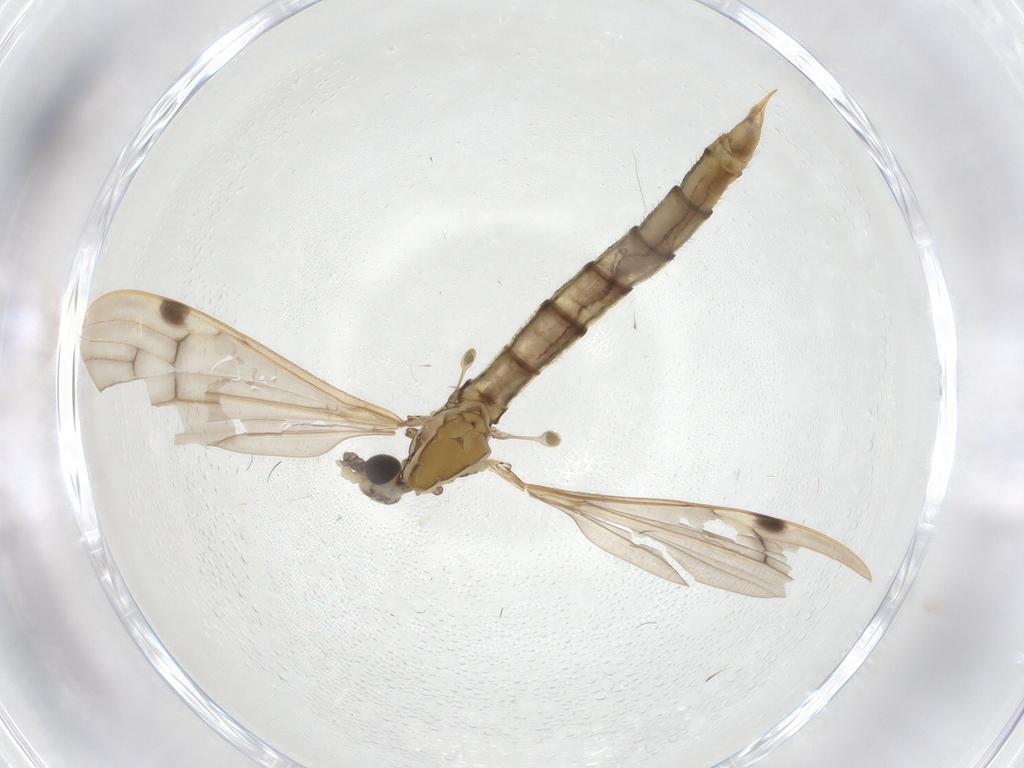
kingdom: Animalia
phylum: Arthropoda
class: Insecta
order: Diptera
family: Limoniidae
